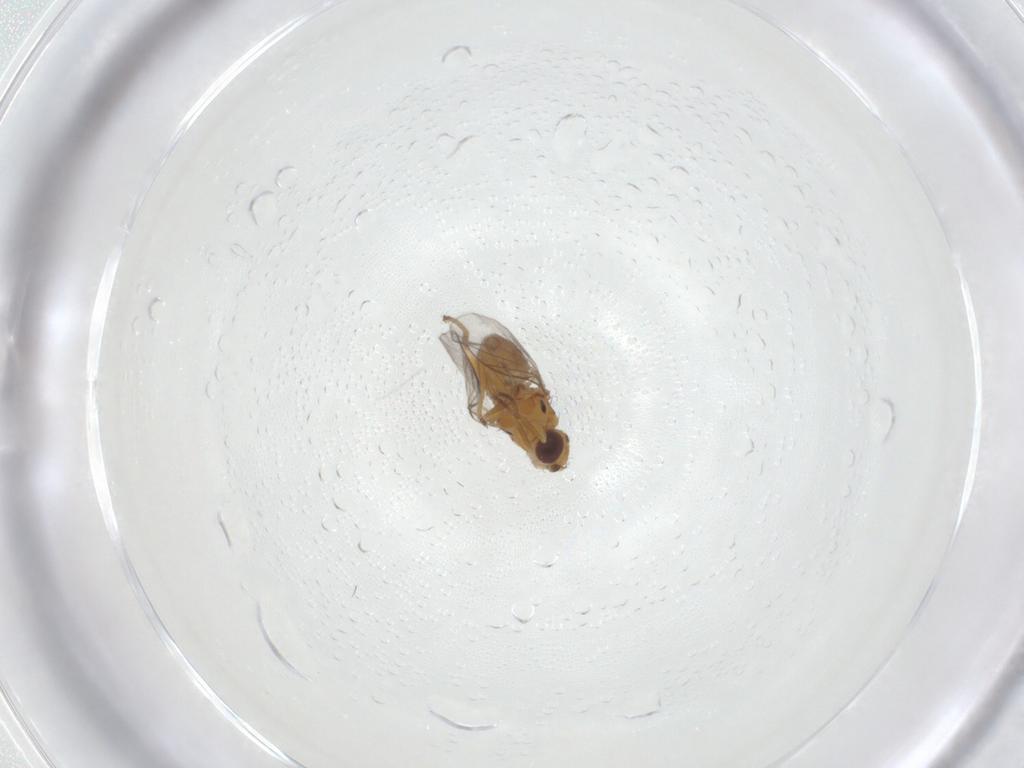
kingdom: Animalia
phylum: Arthropoda
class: Insecta
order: Diptera
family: Chloropidae
